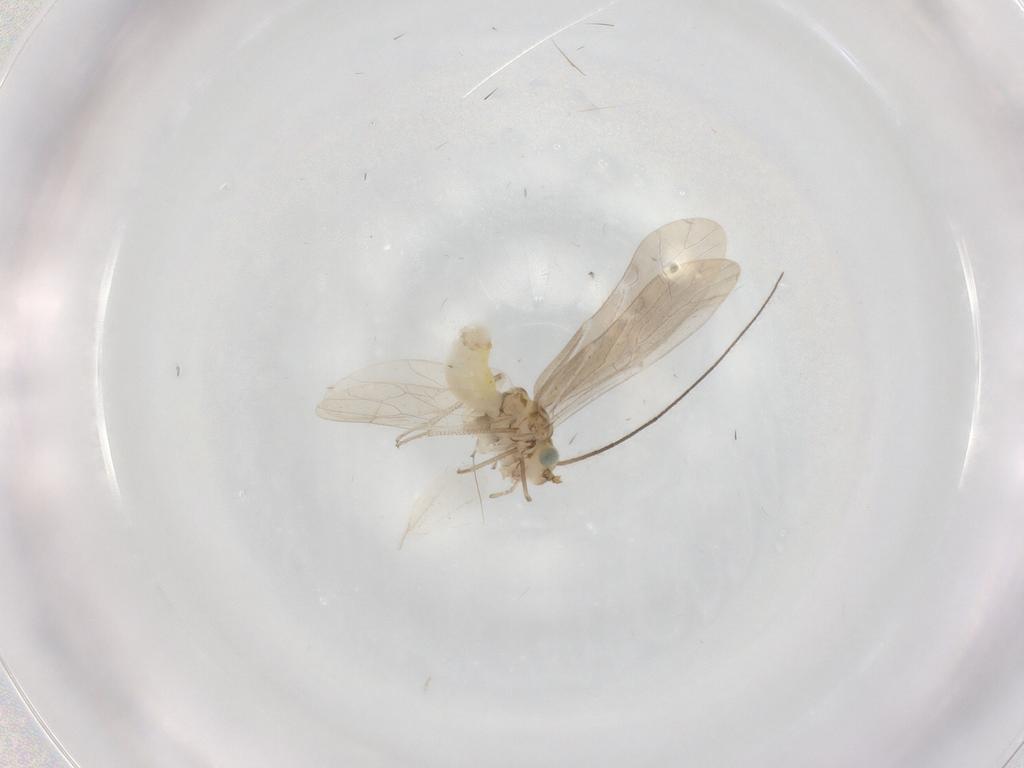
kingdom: Animalia
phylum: Arthropoda
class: Insecta
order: Psocodea
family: Caeciliusidae
